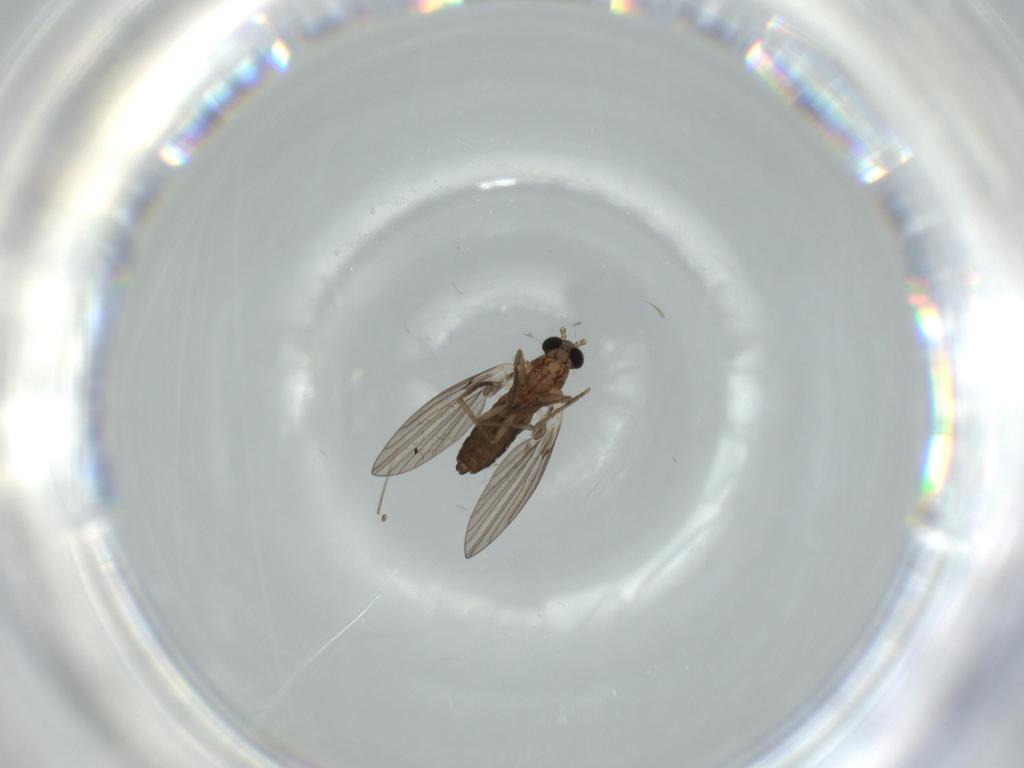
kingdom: Animalia
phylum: Arthropoda
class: Insecta
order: Diptera
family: Psychodidae
